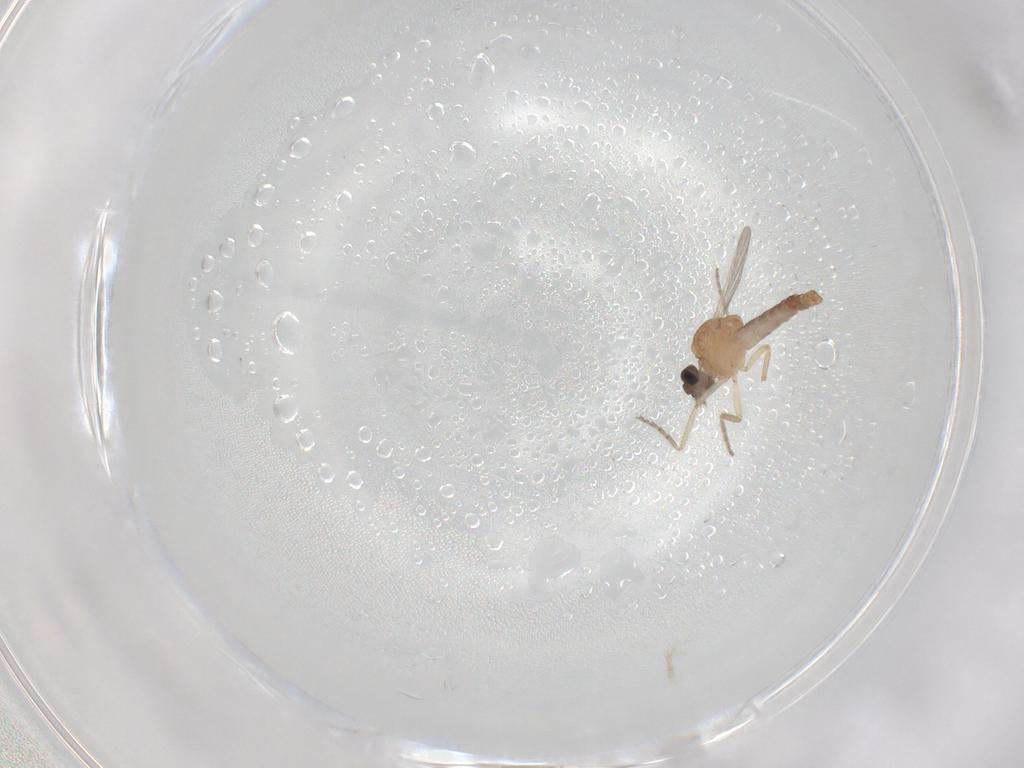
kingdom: Animalia
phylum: Arthropoda
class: Insecta
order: Diptera
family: Ceratopogonidae
